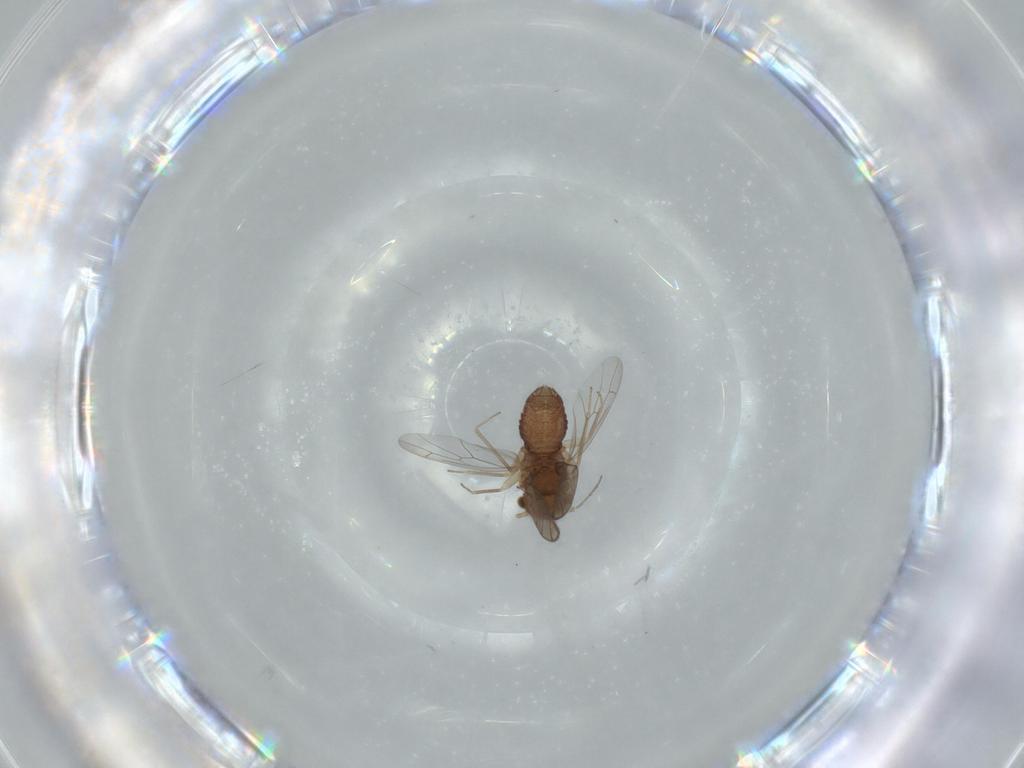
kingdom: Animalia
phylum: Arthropoda
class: Insecta
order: Psocodea
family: Ectopsocidae
